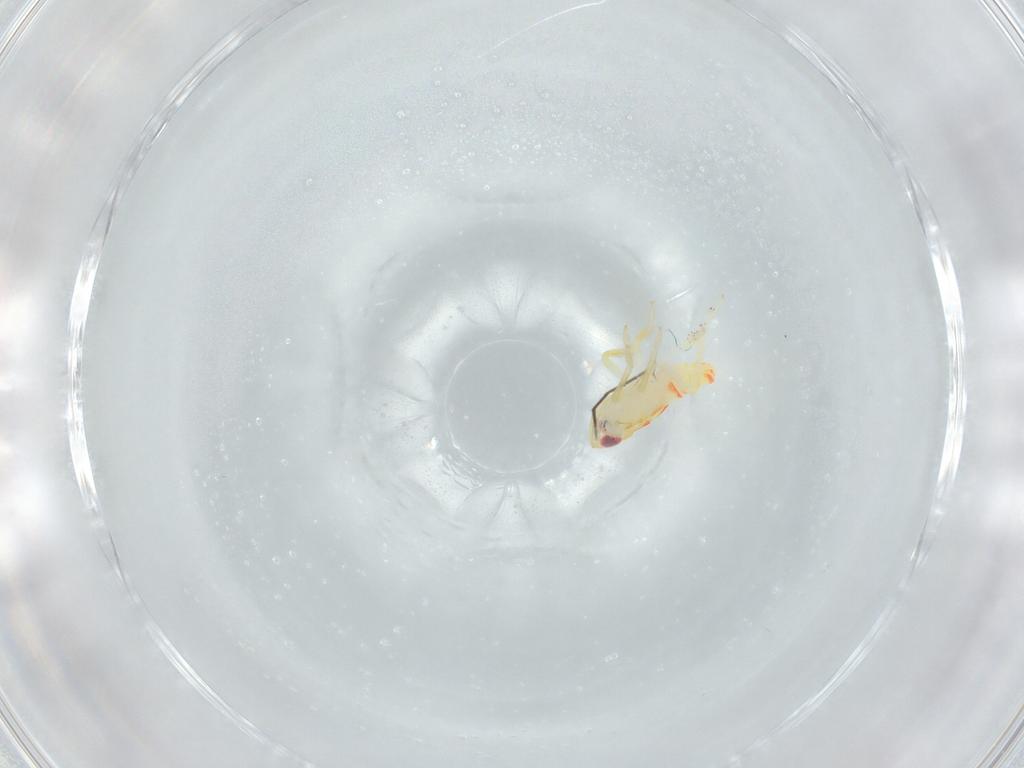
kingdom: Animalia
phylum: Arthropoda
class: Insecta
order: Hemiptera
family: Tropiduchidae
